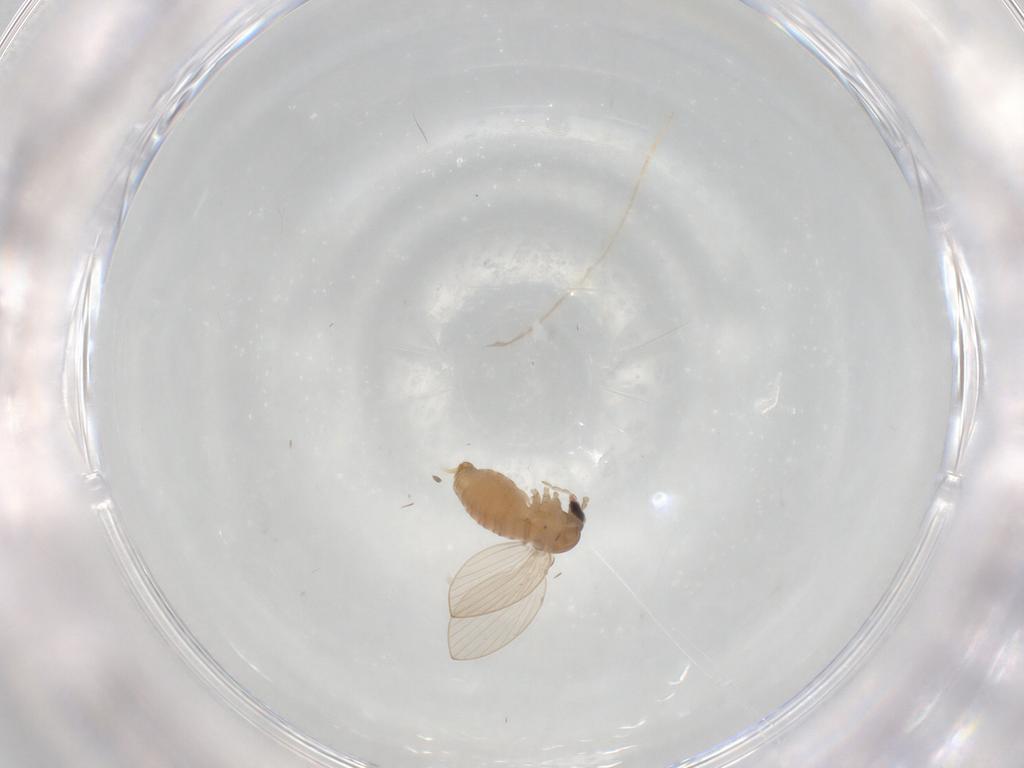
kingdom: Animalia
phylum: Arthropoda
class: Insecta
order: Diptera
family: Psychodidae
